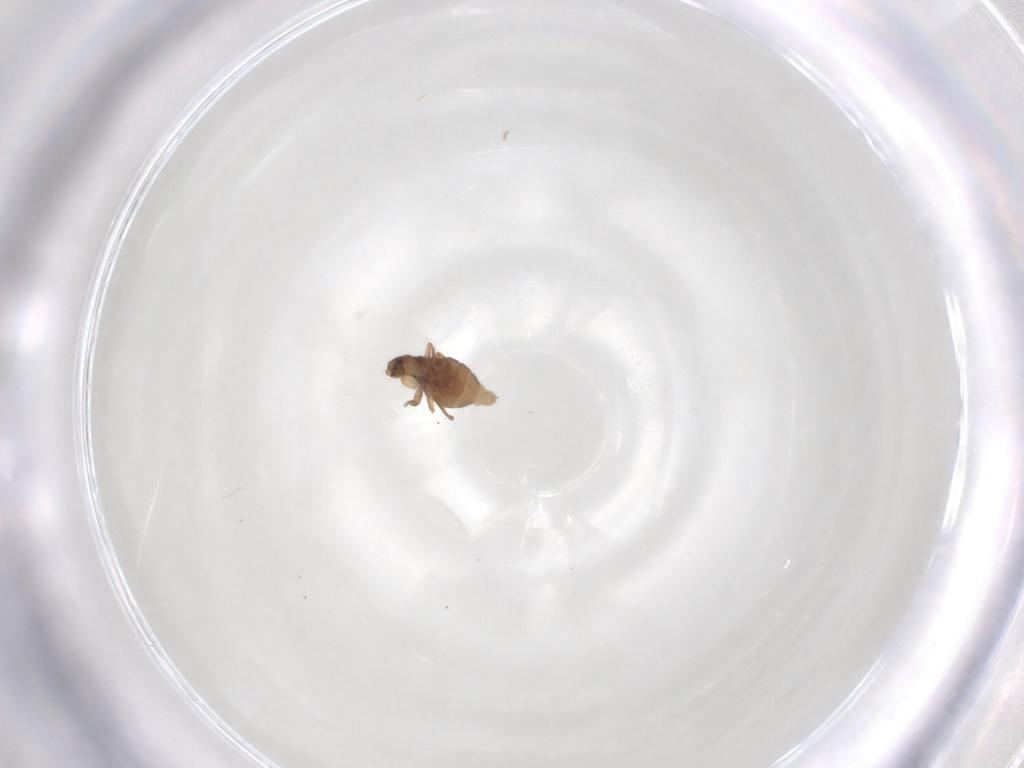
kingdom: Animalia
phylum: Arthropoda
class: Insecta
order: Diptera
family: Phoridae
